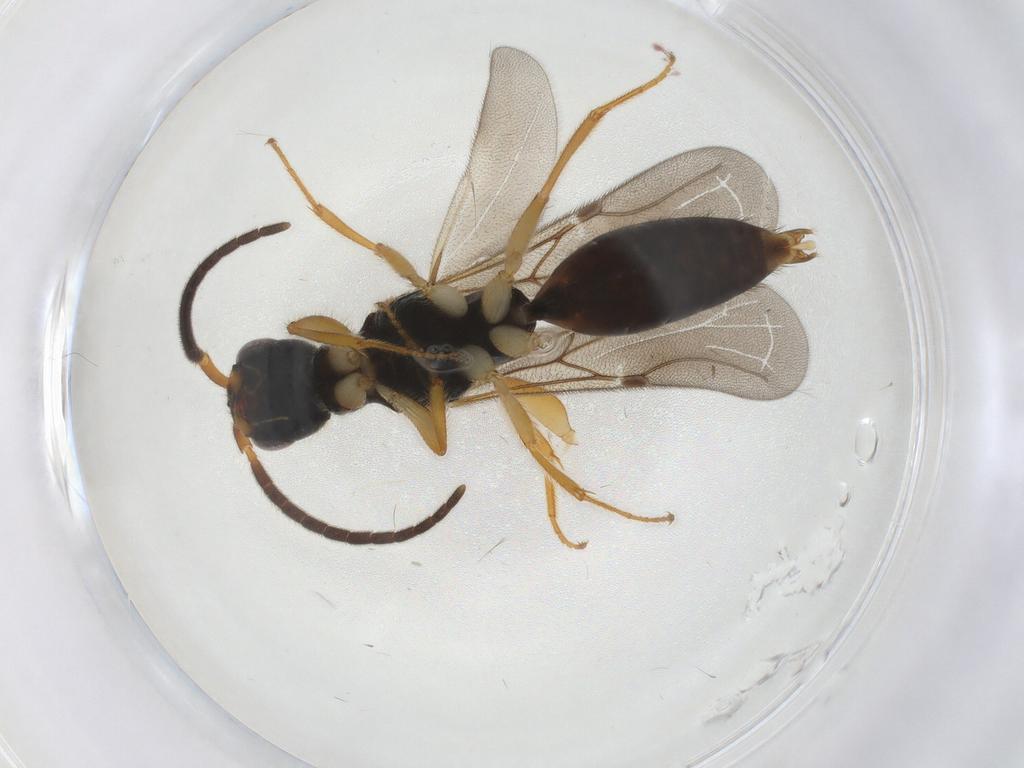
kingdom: Animalia
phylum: Arthropoda
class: Insecta
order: Hymenoptera
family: Bethylidae
